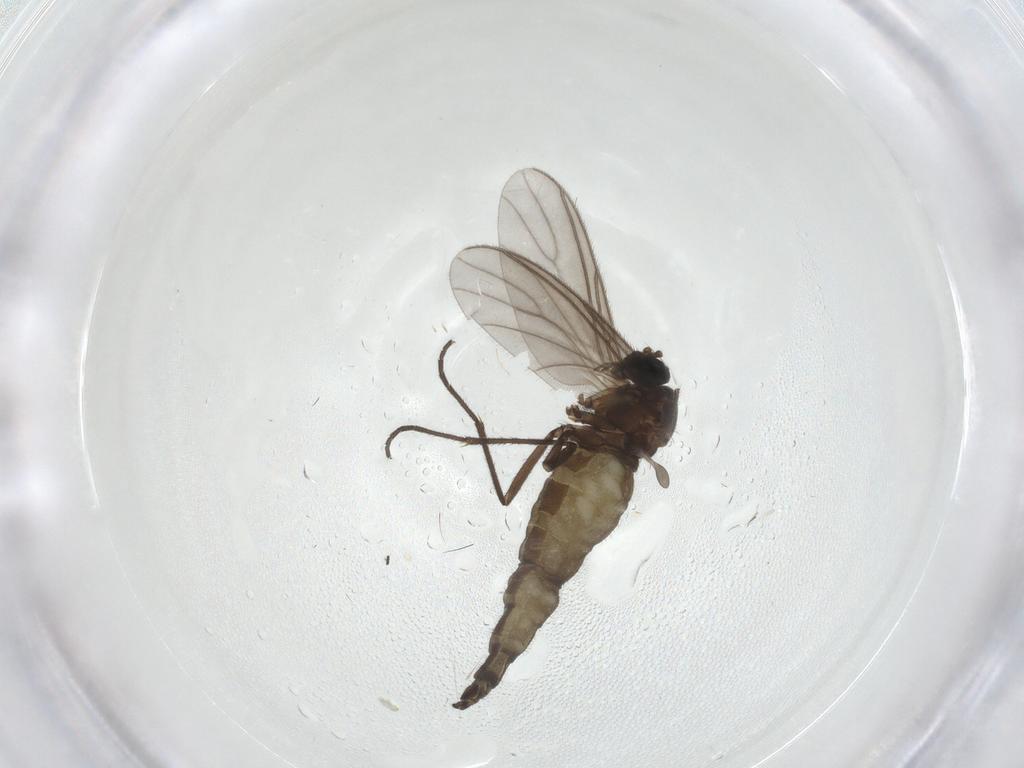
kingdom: Animalia
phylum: Arthropoda
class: Insecta
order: Diptera
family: Sciaridae
